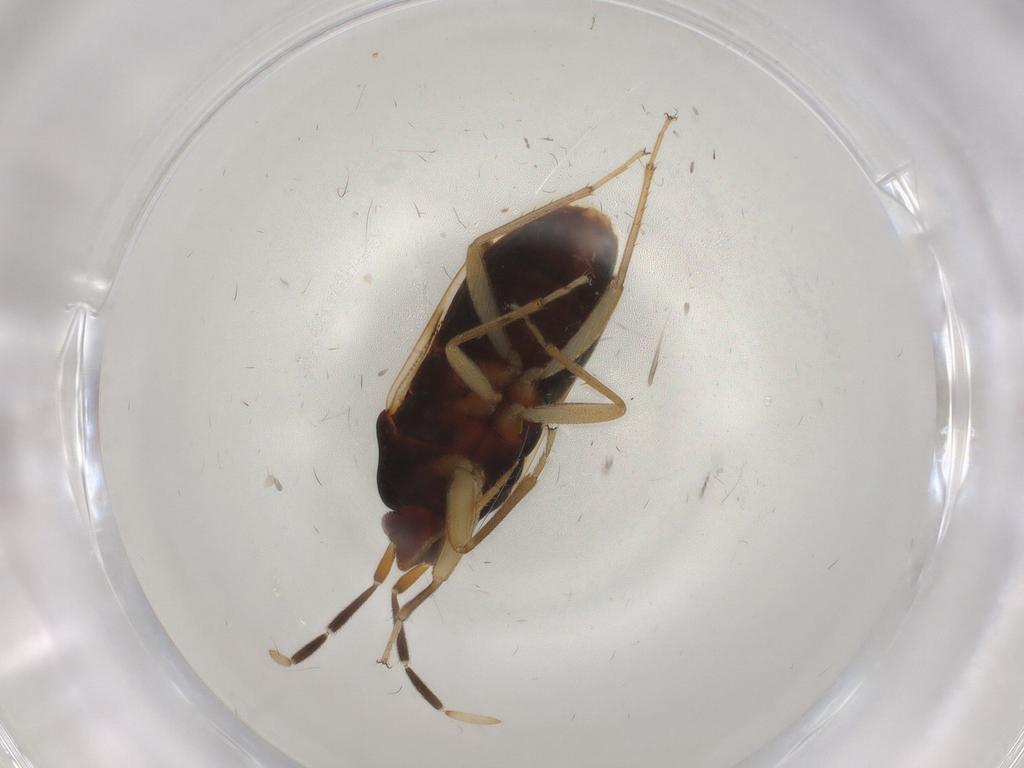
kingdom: Animalia
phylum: Arthropoda
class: Insecta
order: Hemiptera
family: Rhyparochromidae
